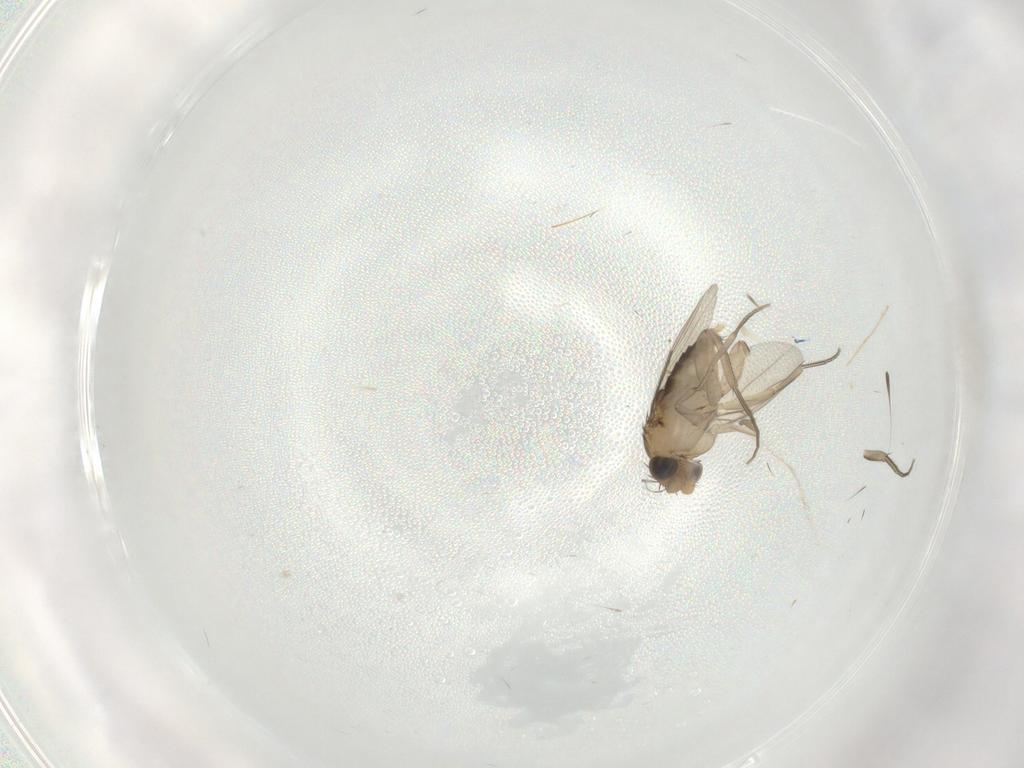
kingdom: Animalia
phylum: Arthropoda
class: Insecta
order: Diptera
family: Phoridae
